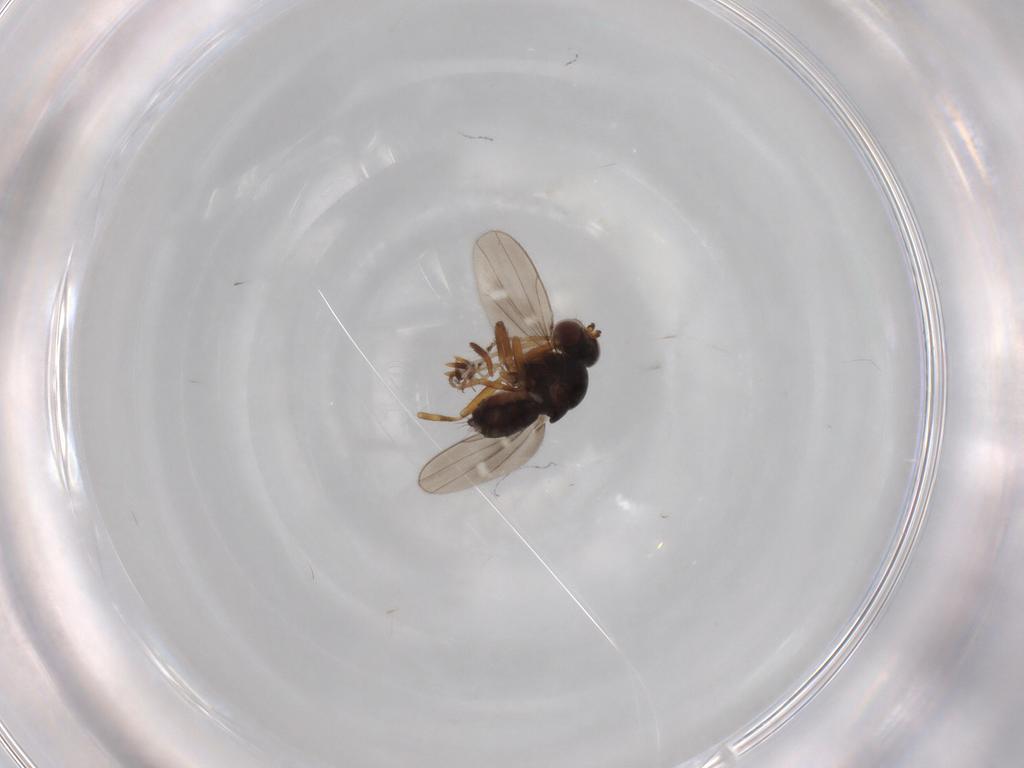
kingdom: Animalia
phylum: Arthropoda
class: Insecta
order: Diptera
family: Ephydridae
